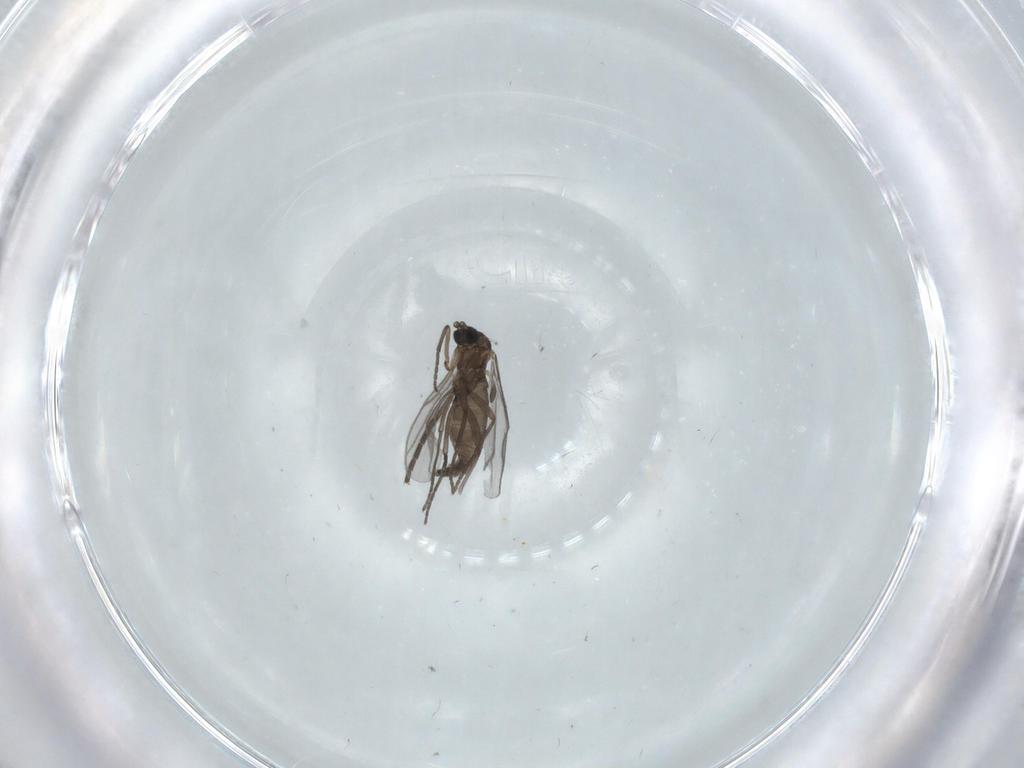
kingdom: Animalia
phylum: Arthropoda
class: Insecta
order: Diptera
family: Sciaridae
